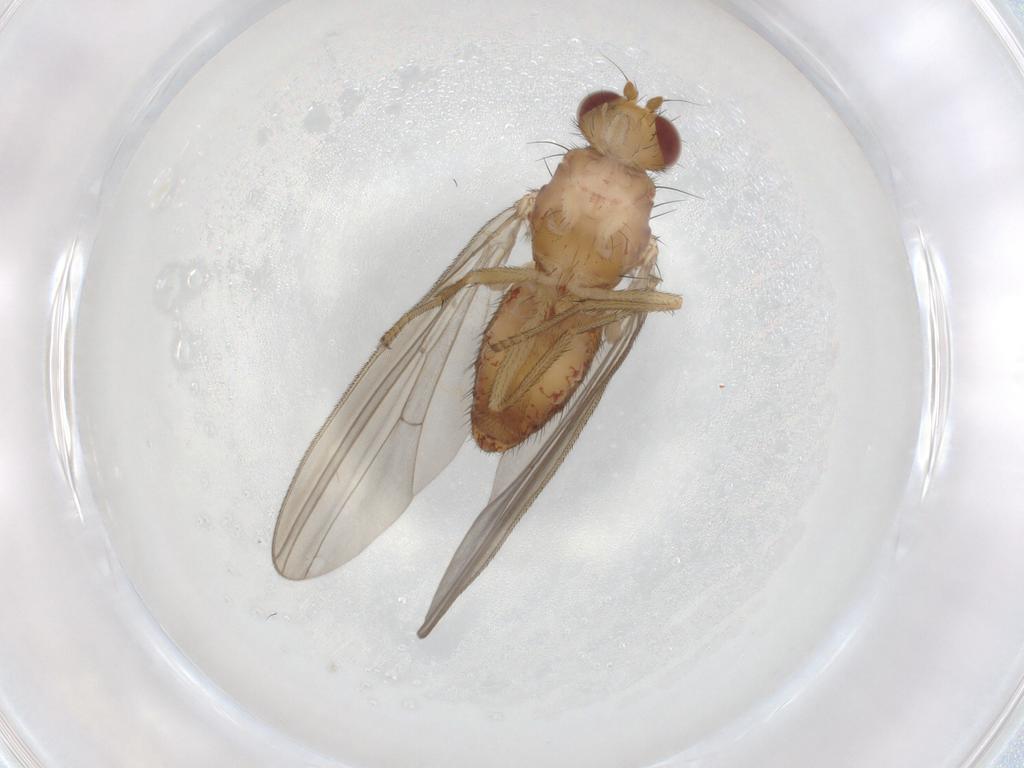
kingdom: Animalia
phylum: Arthropoda
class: Insecta
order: Diptera
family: Natalimyzidae
